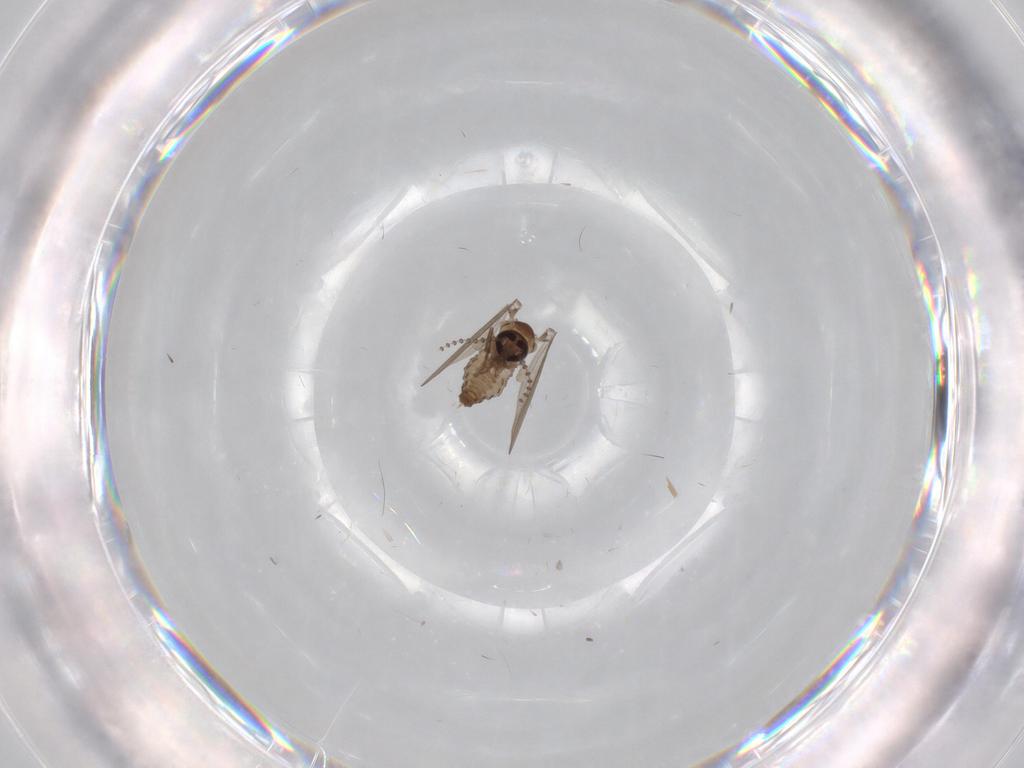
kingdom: Animalia
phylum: Arthropoda
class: Insecta
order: Diptera
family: Psychodidae
